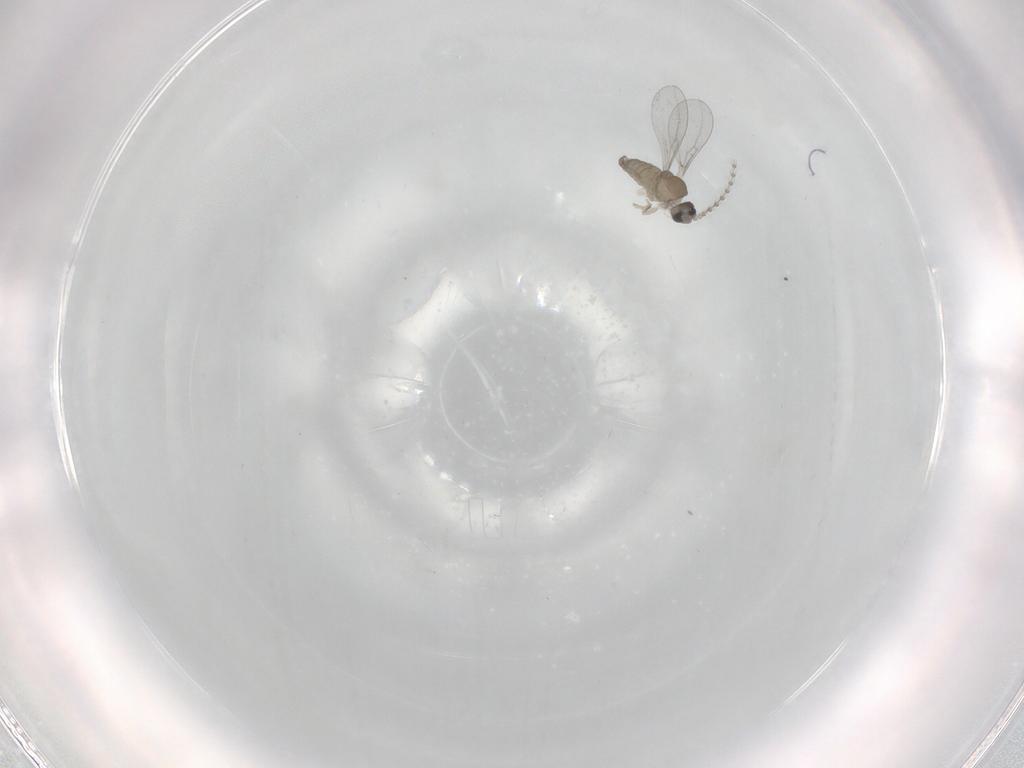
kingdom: Animalia
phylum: Arthropoda
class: Insecta
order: Diptera
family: Cecidomyiidae
